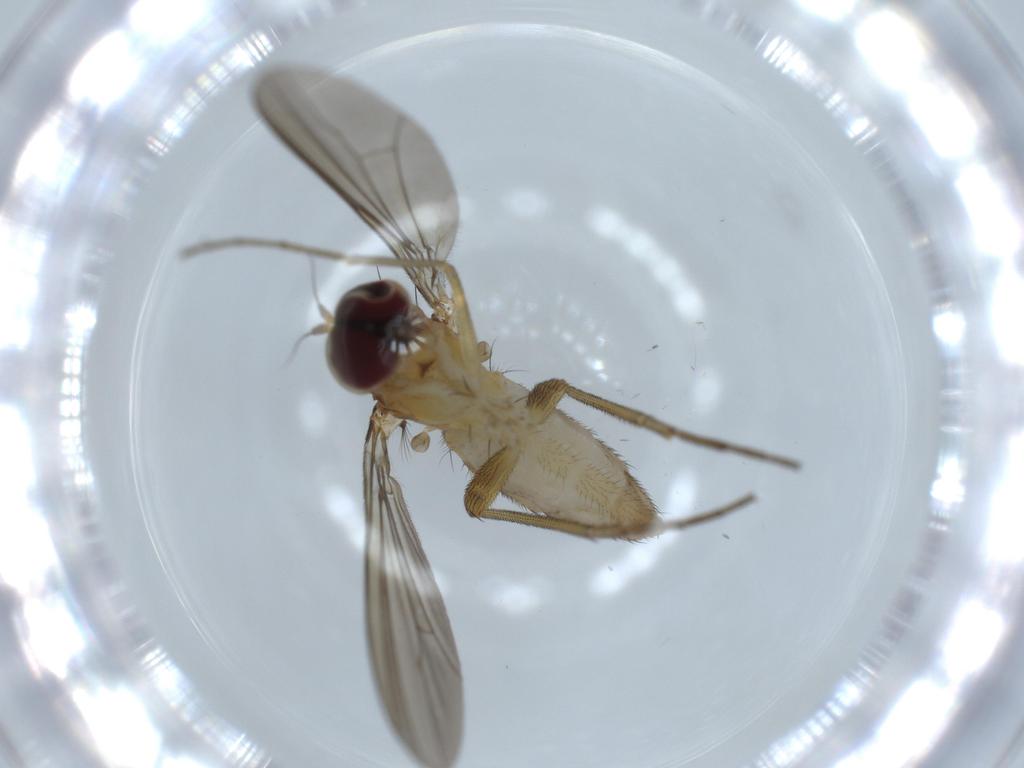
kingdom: Animalia
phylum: Arthropoda
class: Insecta
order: Diptera
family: Dolichopodidae
